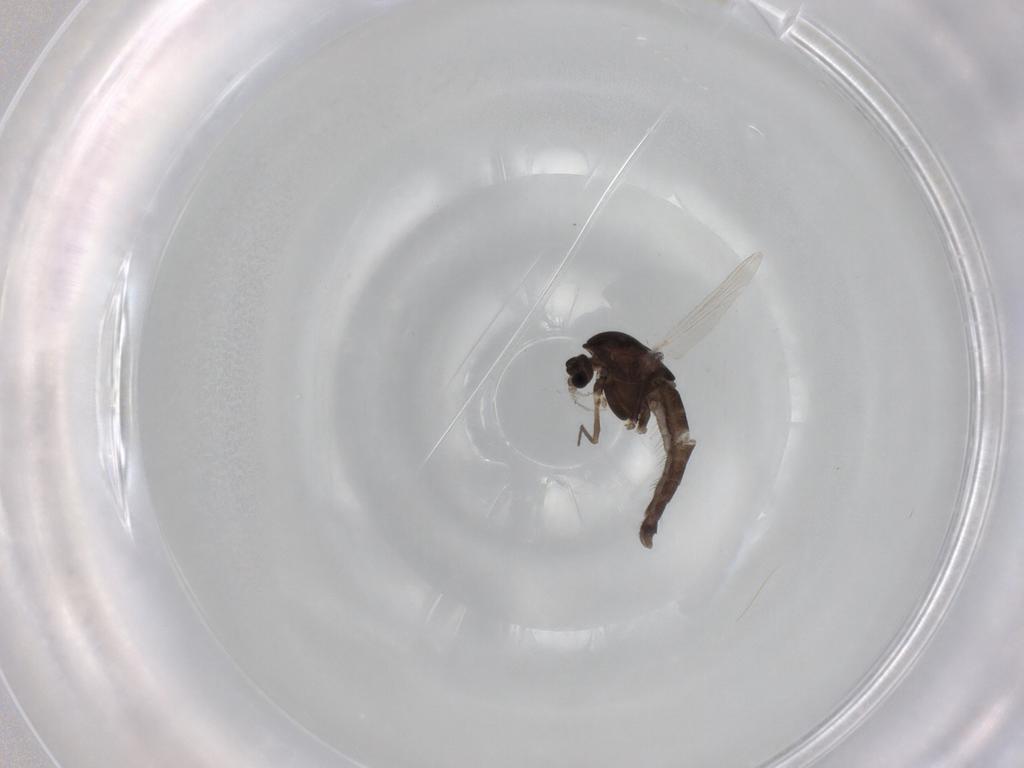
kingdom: Animalia
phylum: Arthropoda
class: Insecta
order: Diptera
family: Chironomidae
